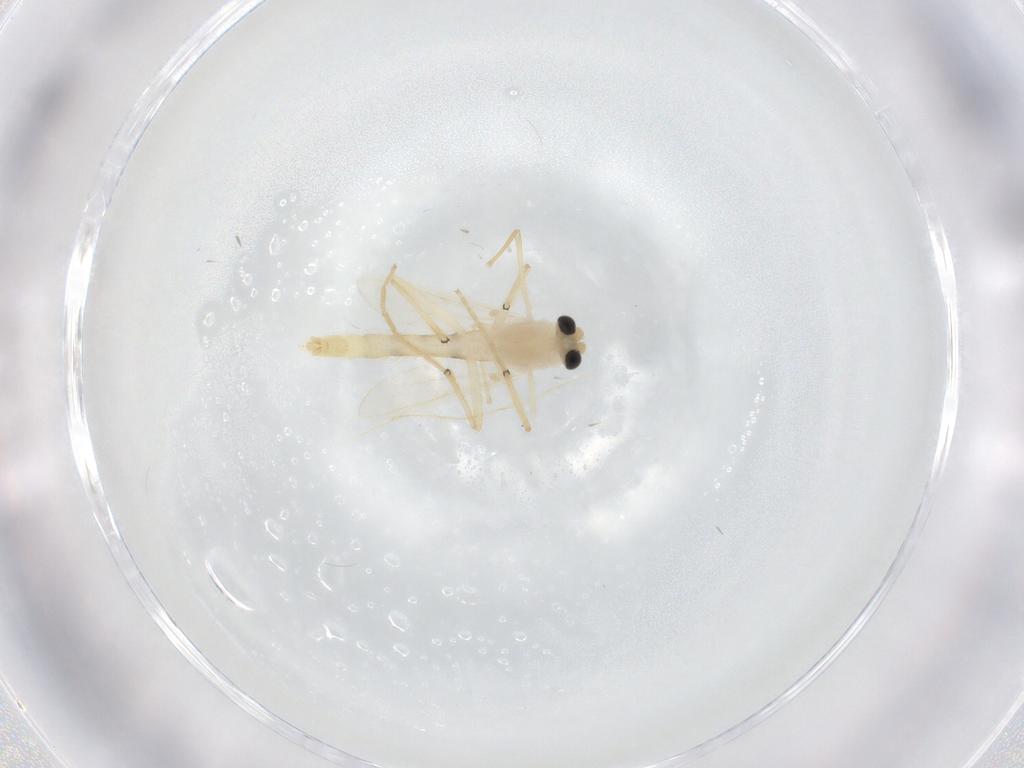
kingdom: Animalia
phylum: Arthropoda
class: Insecta
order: Diptera
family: Chironomidae
